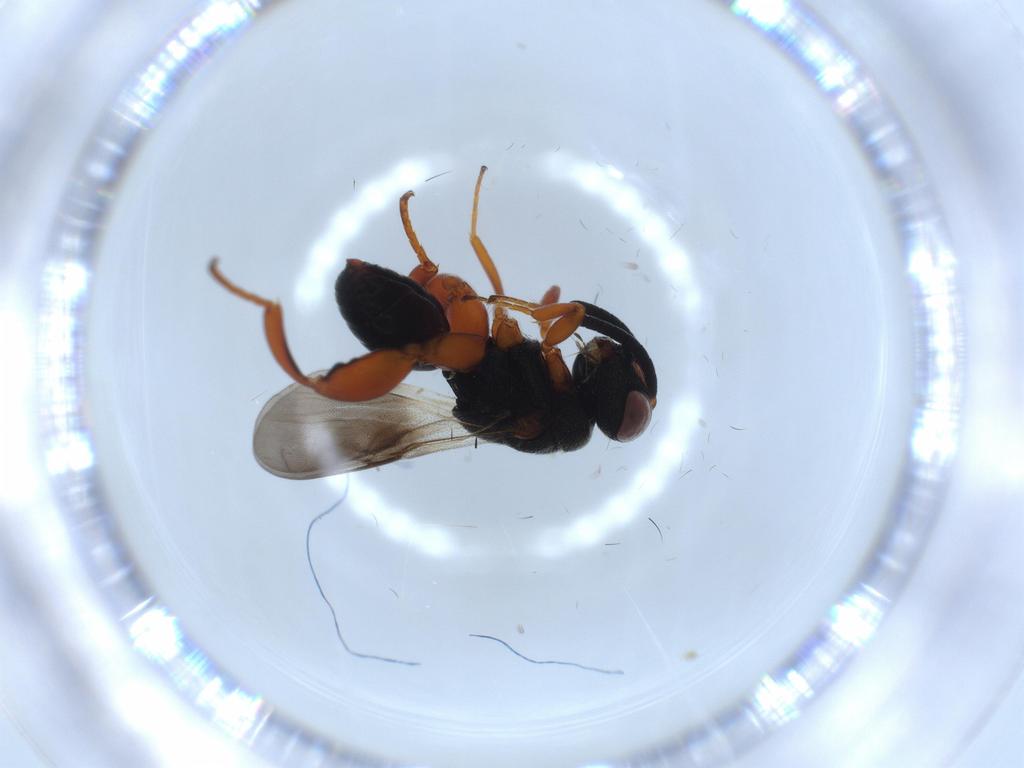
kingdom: Animalia
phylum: Arthropoda
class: Insecta
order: Hymenoptera
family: Chalcididae
